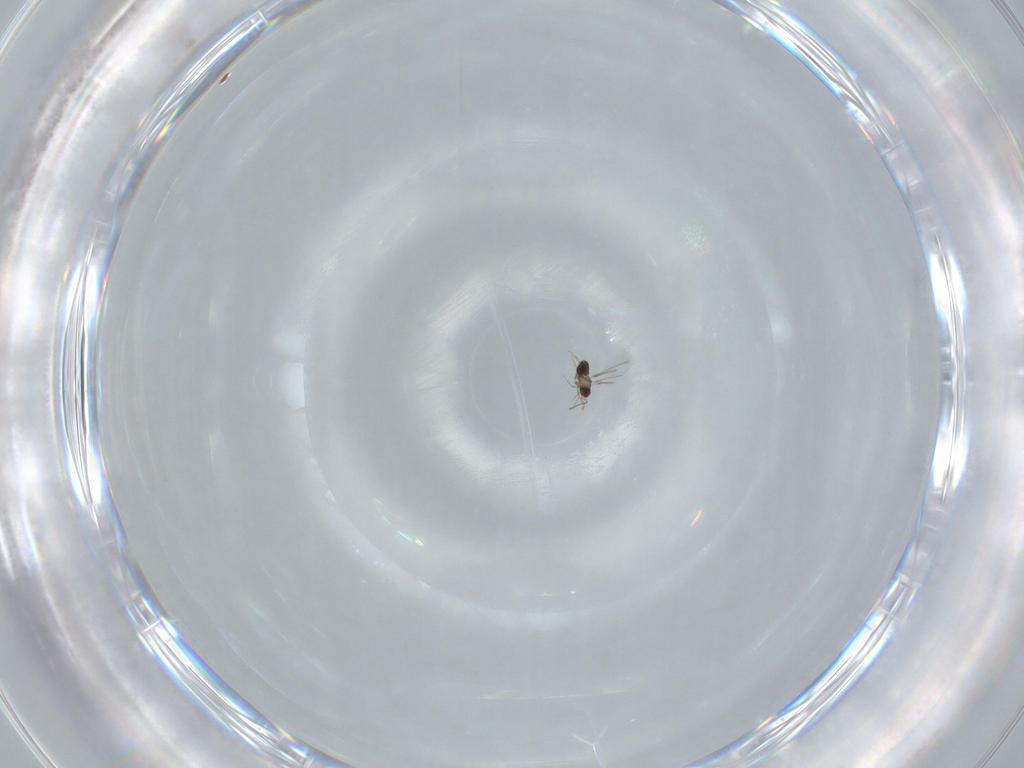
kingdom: Animalia
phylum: Arthropoda
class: Insecta
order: Hymenoptera
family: Mymaridae
